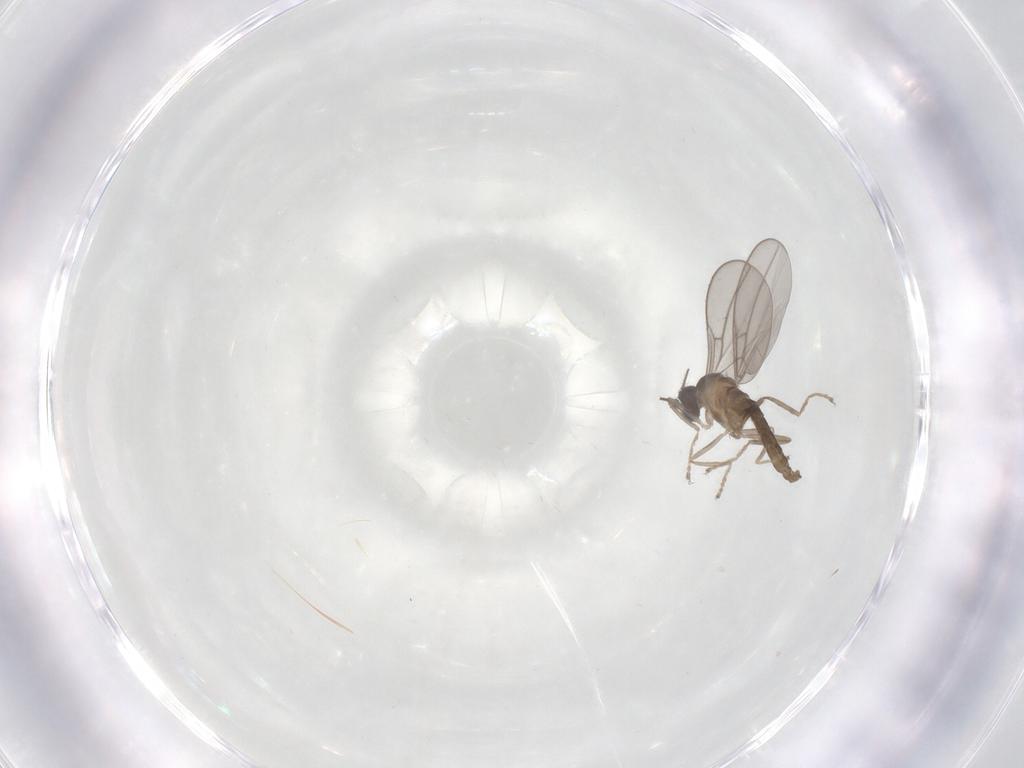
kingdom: Animalia
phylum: Arthropoda
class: Insecta
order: Diptera
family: Cecidomyiidae
